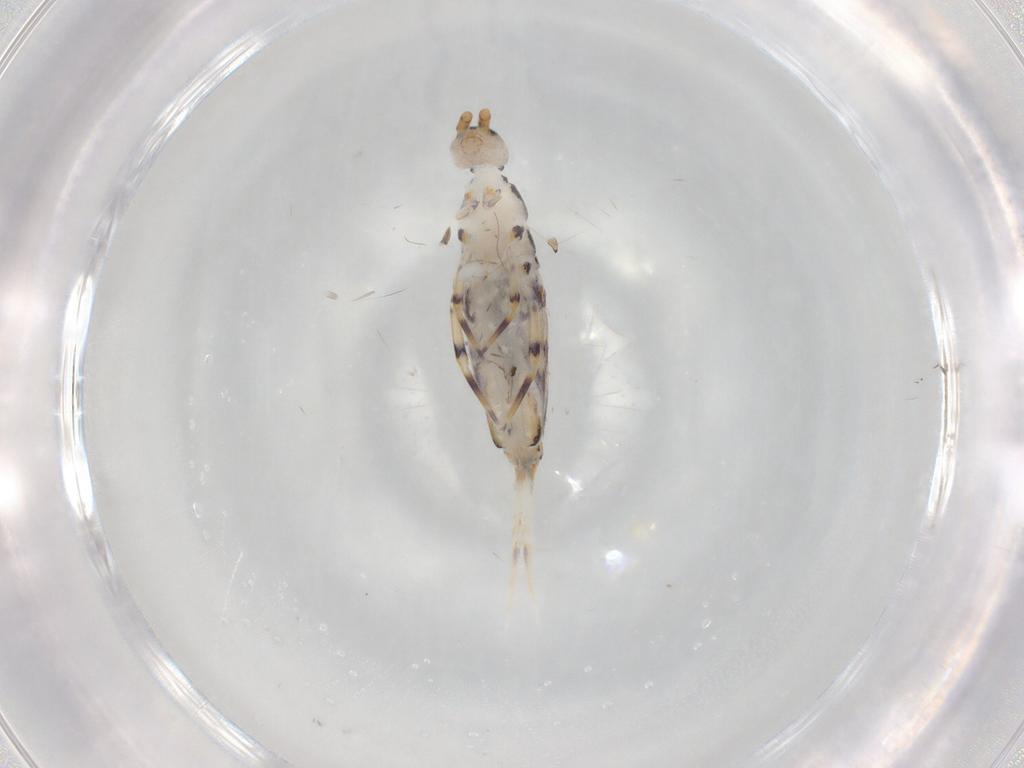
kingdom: Animalia
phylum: Arthropoda
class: Collembola
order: Entomobryomorpha
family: Entomobryidae
